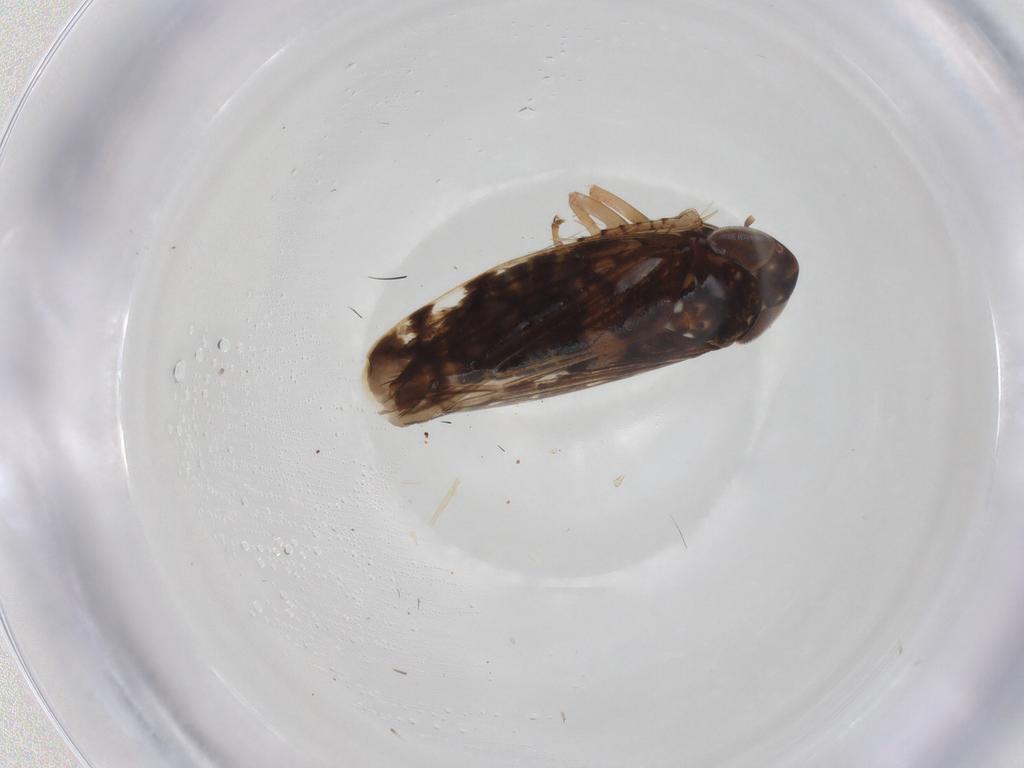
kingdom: Animalia
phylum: Arthropoda
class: Insecta
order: Hemiptera
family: Cicadellidae
